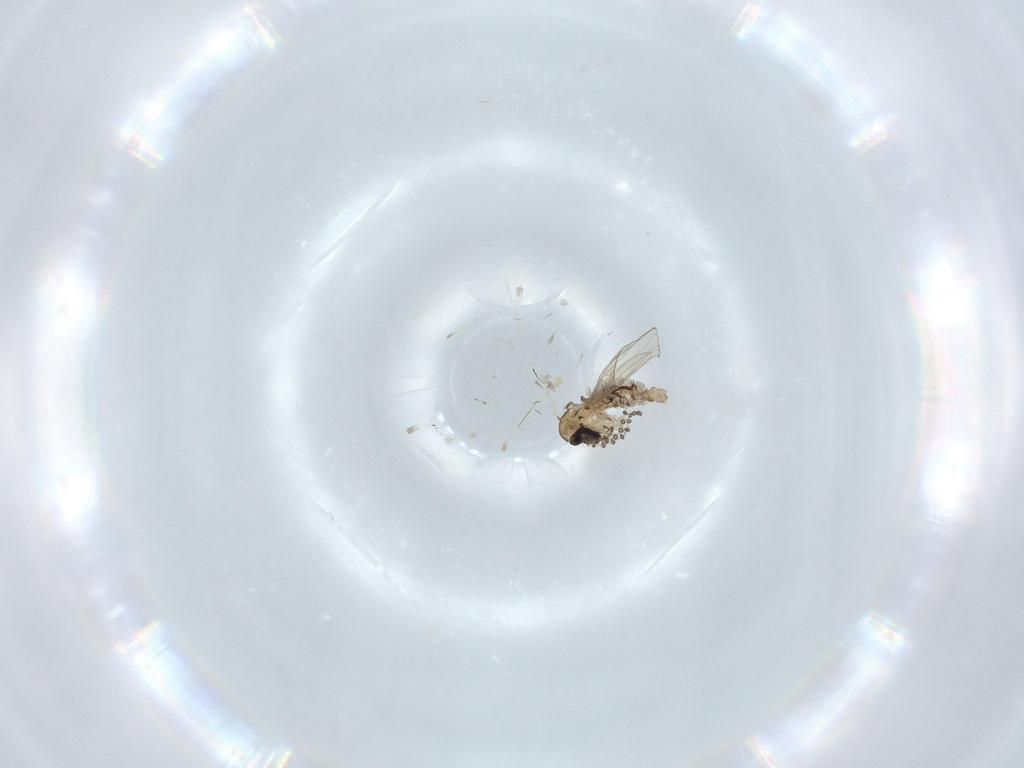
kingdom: Animalia
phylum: Arthropoda
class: Insecta
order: Diptera
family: Psychodidae
